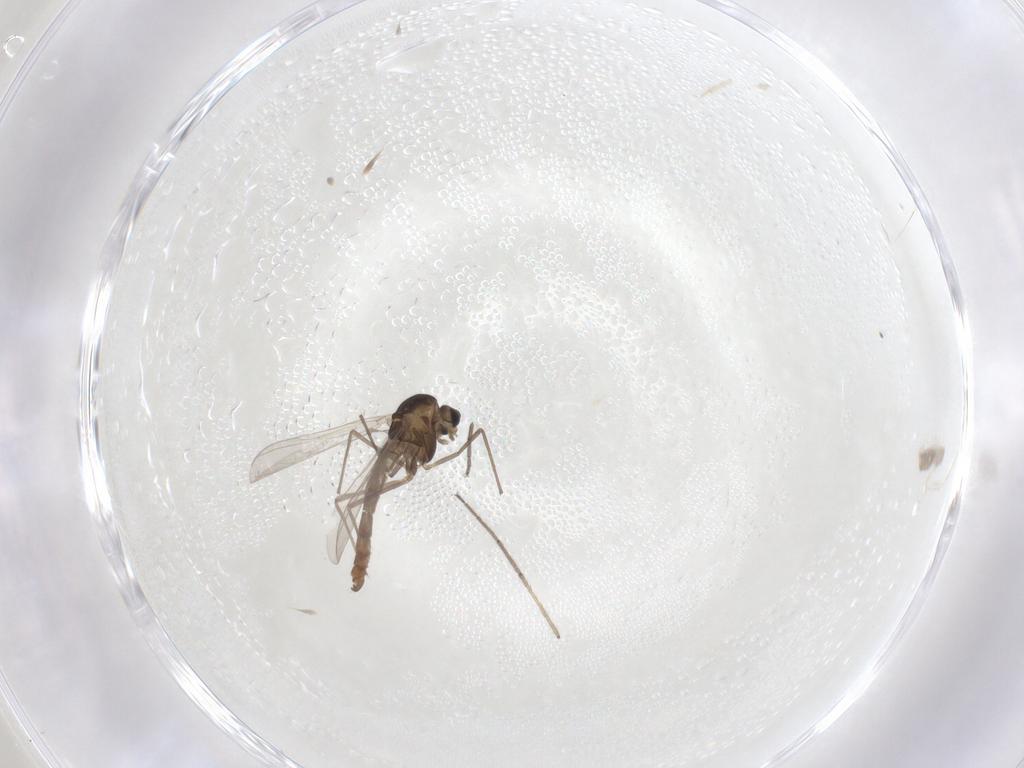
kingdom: Animalia
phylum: Arthropoda
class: Insecta
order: Diptera
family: Chironomidae
